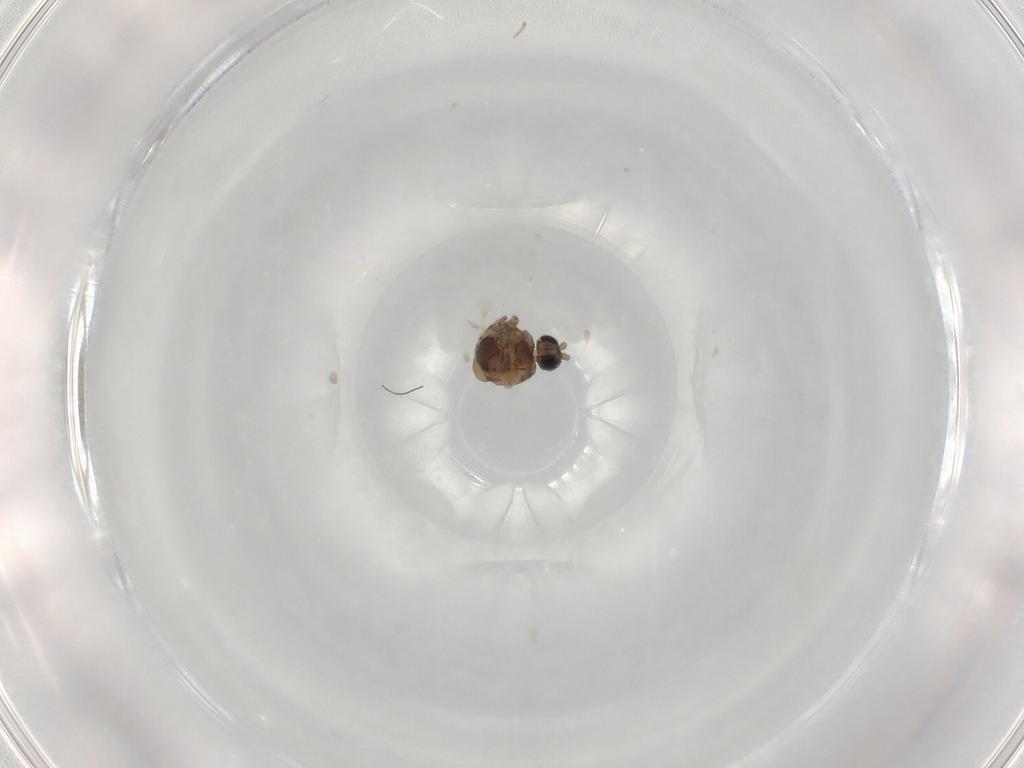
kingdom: Animalia
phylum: Arthropoda
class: Insecta
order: Diptera
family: Cecidomyiidae
